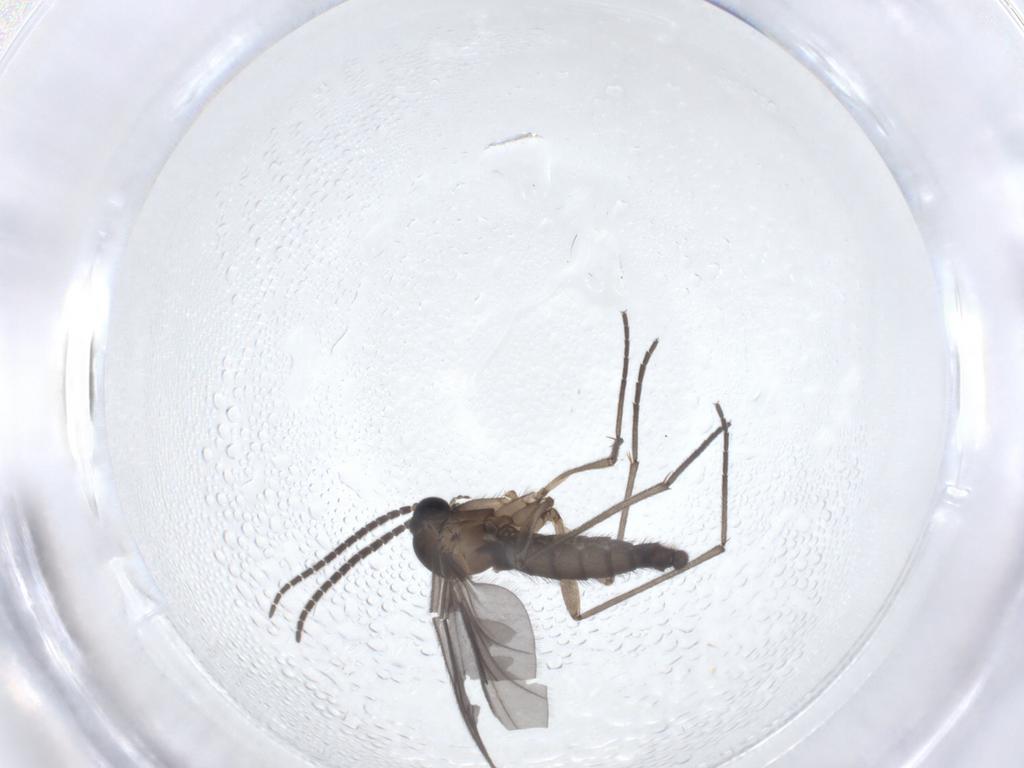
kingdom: Animalia
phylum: Arthropoda
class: Insecta
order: Diptera
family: Sciaridae
